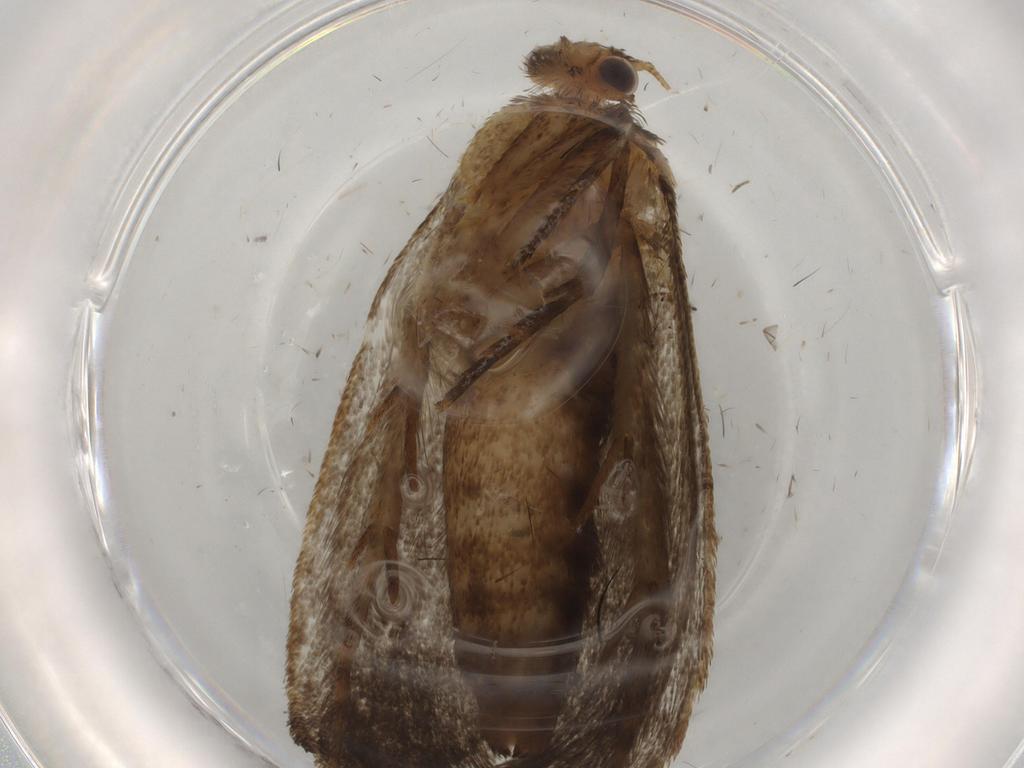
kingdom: Animalia
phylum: Arthropoda
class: Insecta
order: Lepidoptera
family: Tineidae
